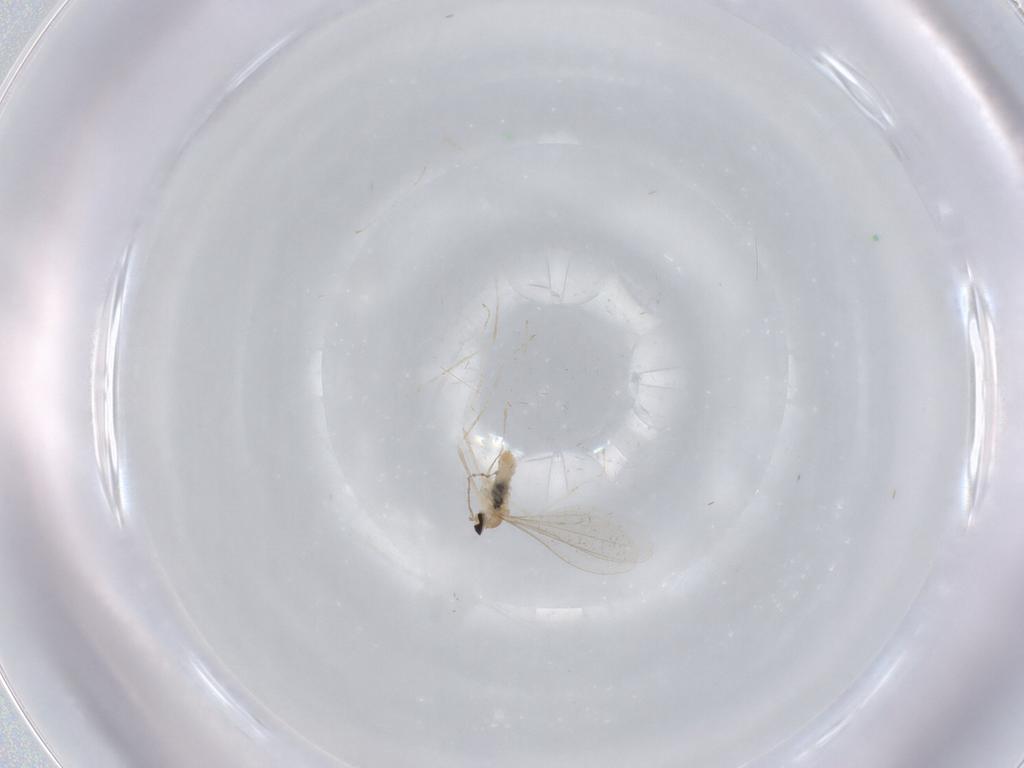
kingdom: Animalia
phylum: Arthropoda
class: Insecta
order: Diptera
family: Cecidomyiidae
